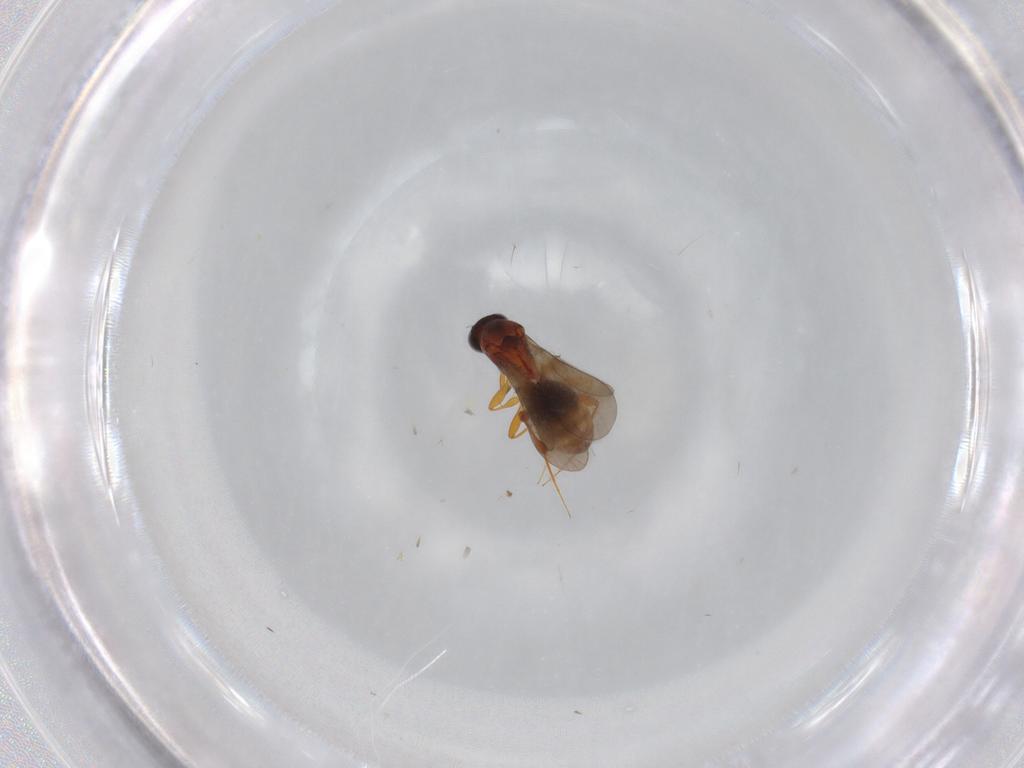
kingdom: Animalia
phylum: Arthropoda
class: Insecta
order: Hymenoptera
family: Platygastridae
